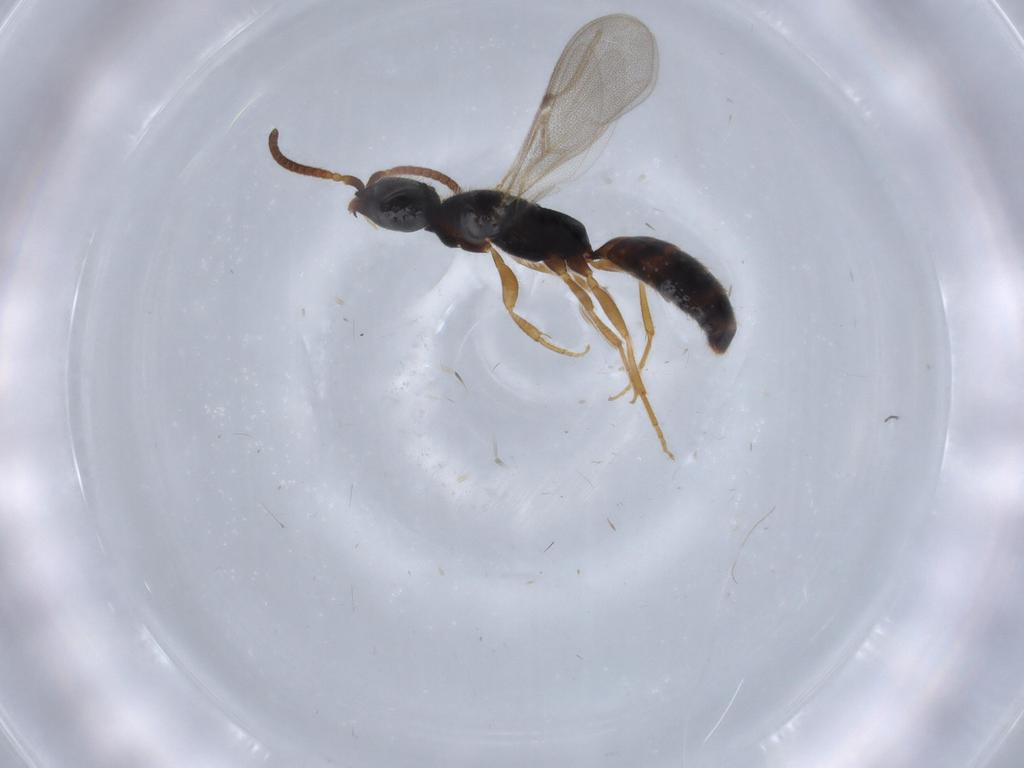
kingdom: Animalia
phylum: Arthropoda
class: Insecta
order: Hymenoptera
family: Bethylidae
